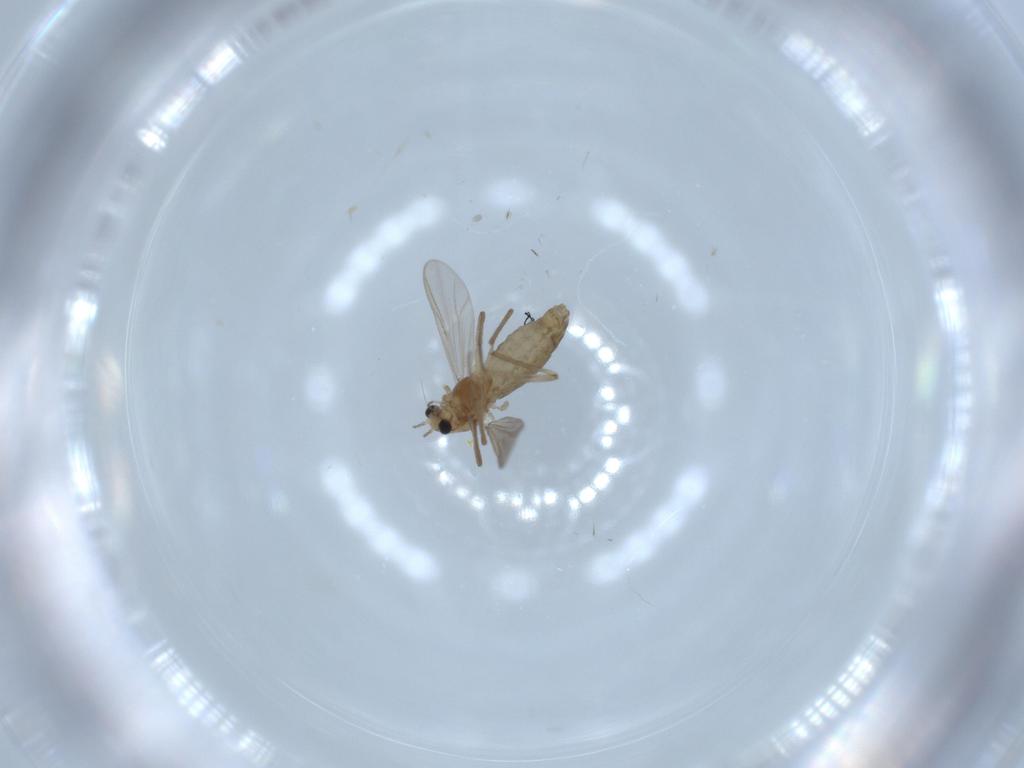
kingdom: Animalia
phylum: Arthropoda
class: Insecta
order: Diptera
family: Chironomidae
